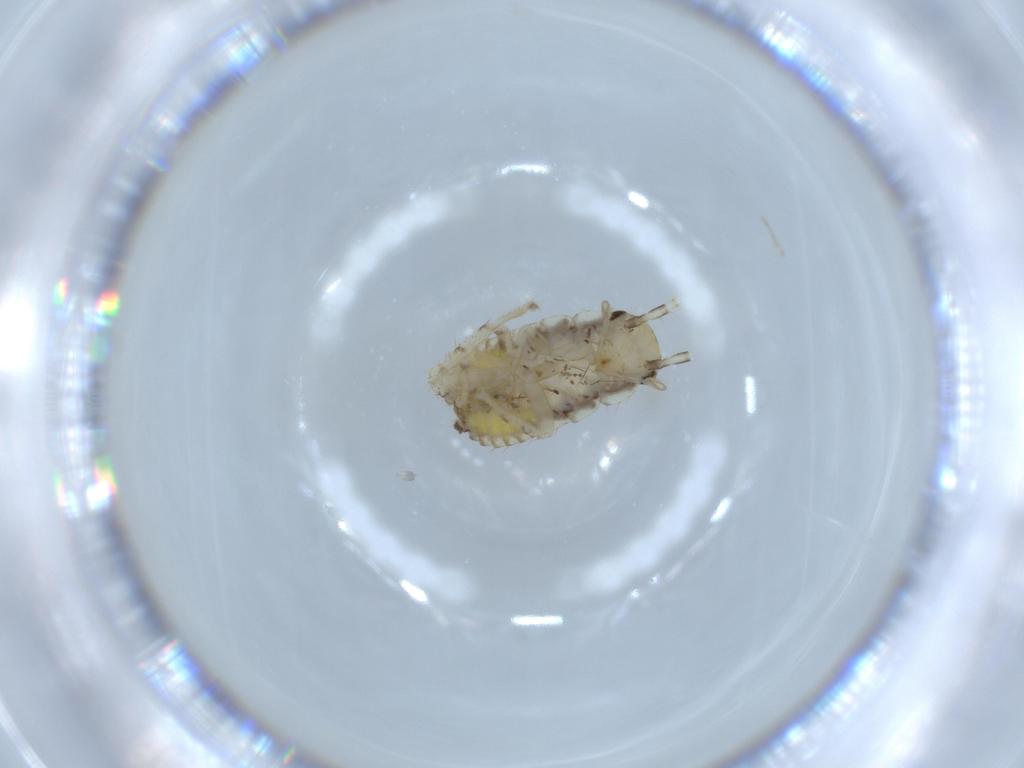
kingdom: Animalia
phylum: Arthropoda
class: Insecta
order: Blattodea
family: Ectobiidae
